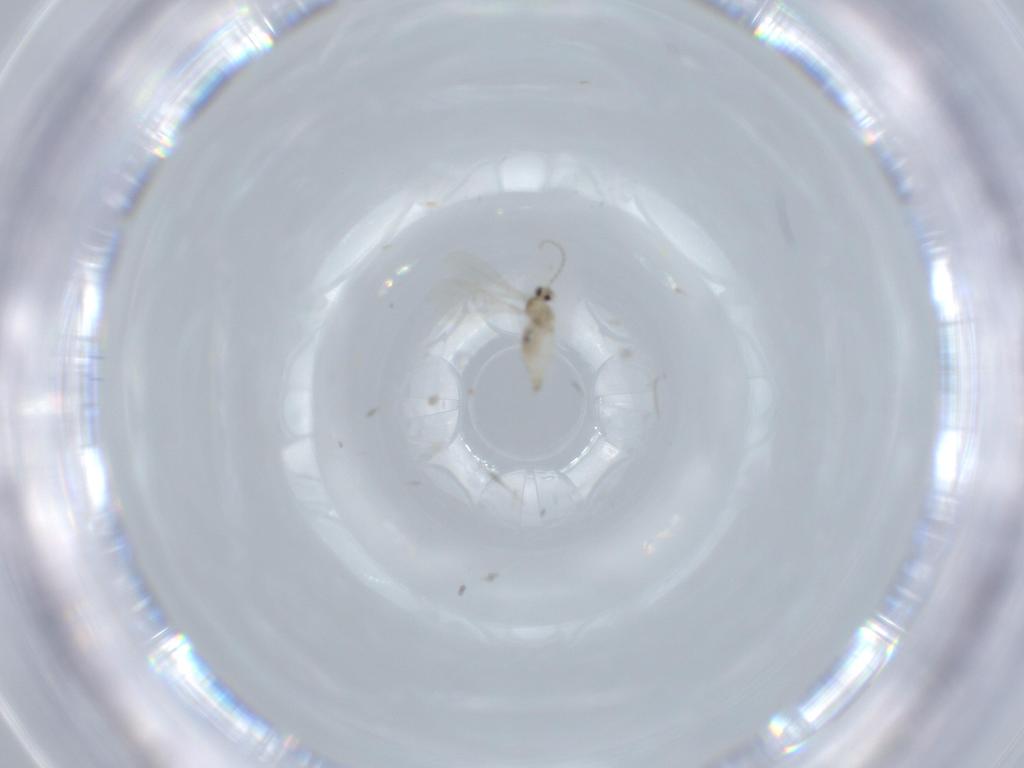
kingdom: Animalia
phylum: Arthropoda
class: Insecta
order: Diptera
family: Cecidomyiidae
